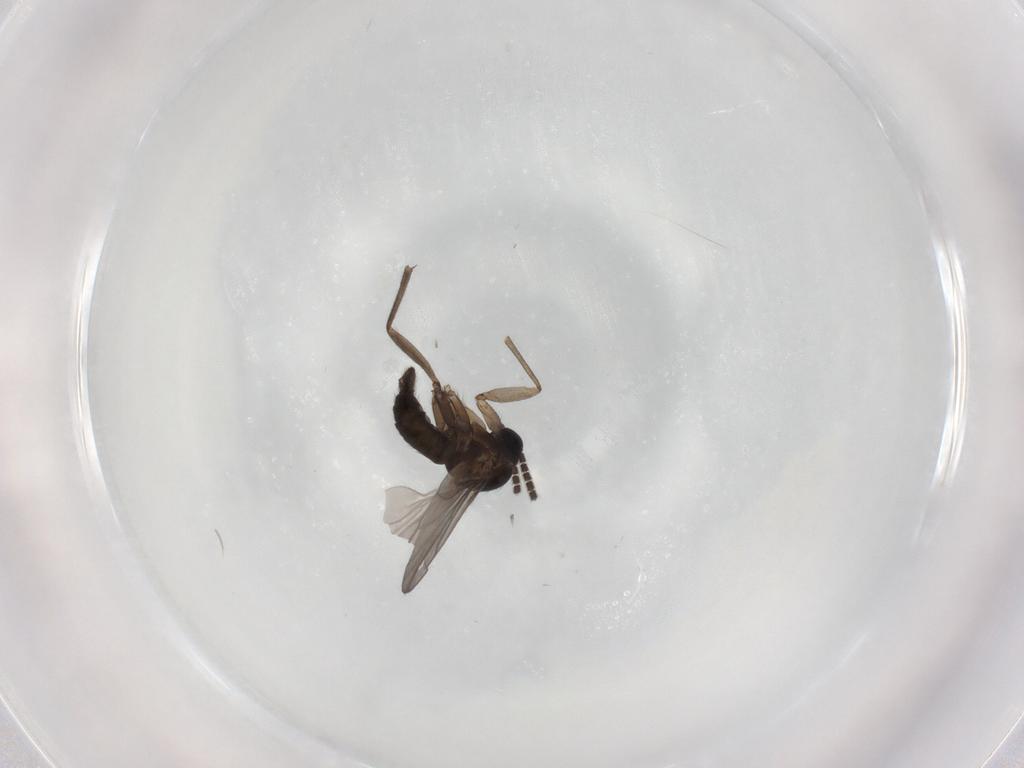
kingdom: Animalia
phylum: Arthropoda
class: Insecta
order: Diptera
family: Sciaridae
